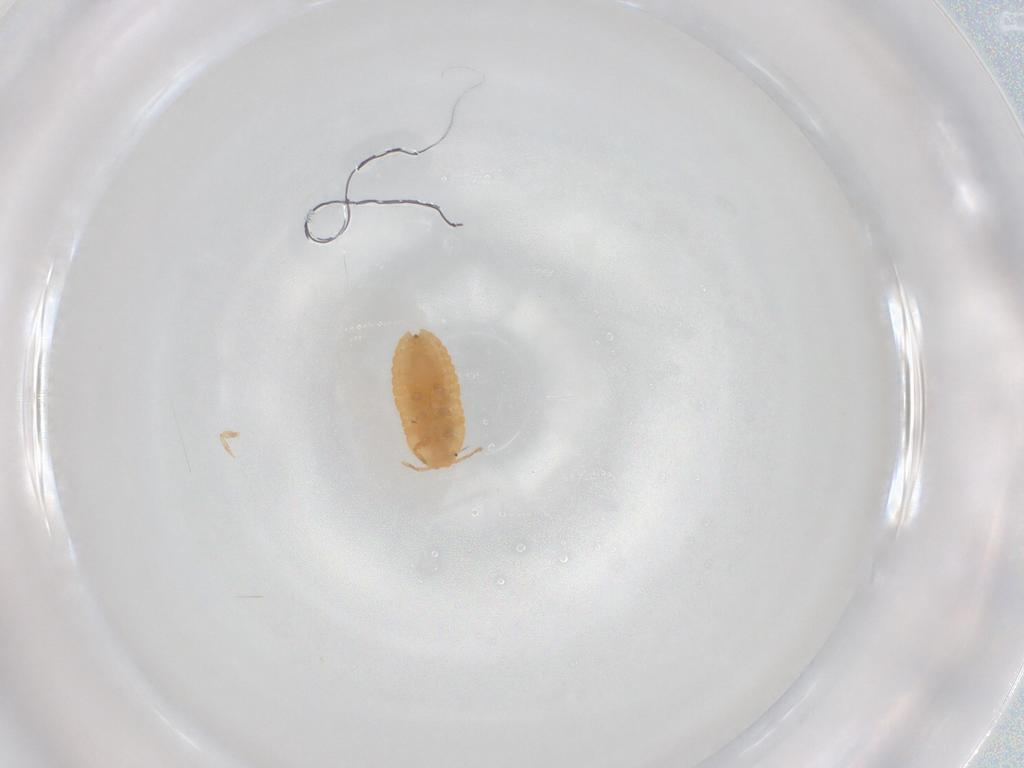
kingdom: Animalia
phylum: Arthropoda
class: Insecta
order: Hemiptera
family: Pseudococcidae
